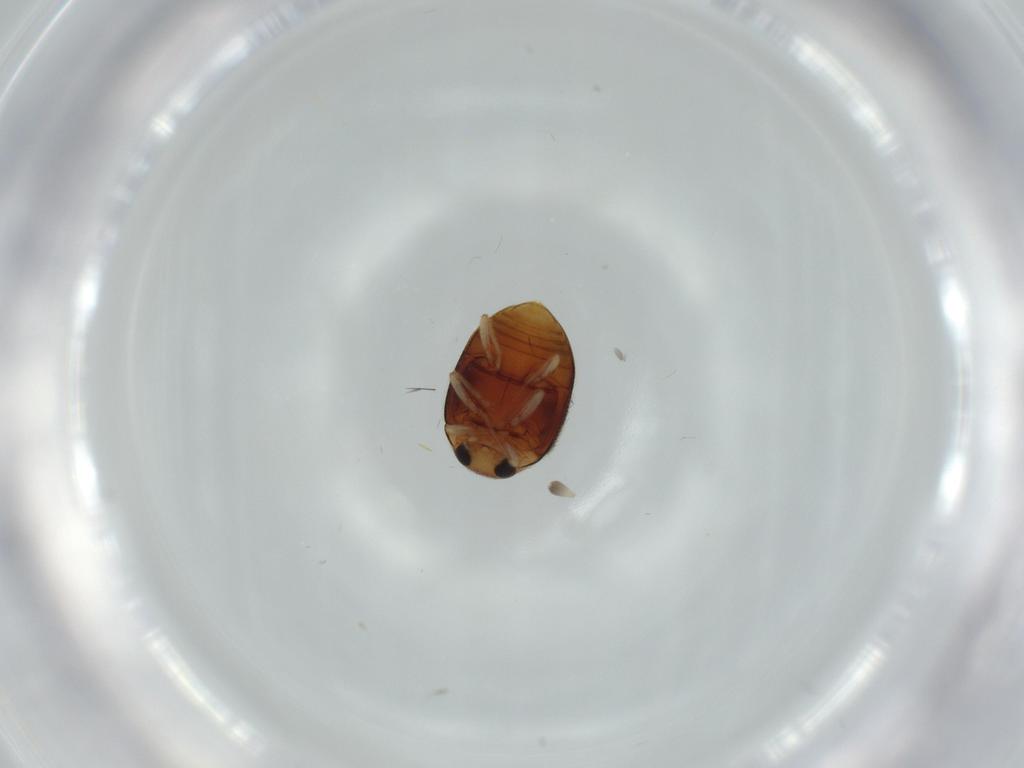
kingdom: Animalia
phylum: Arthropoda
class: Insecta
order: Coleoptera
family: Coccinellidae
